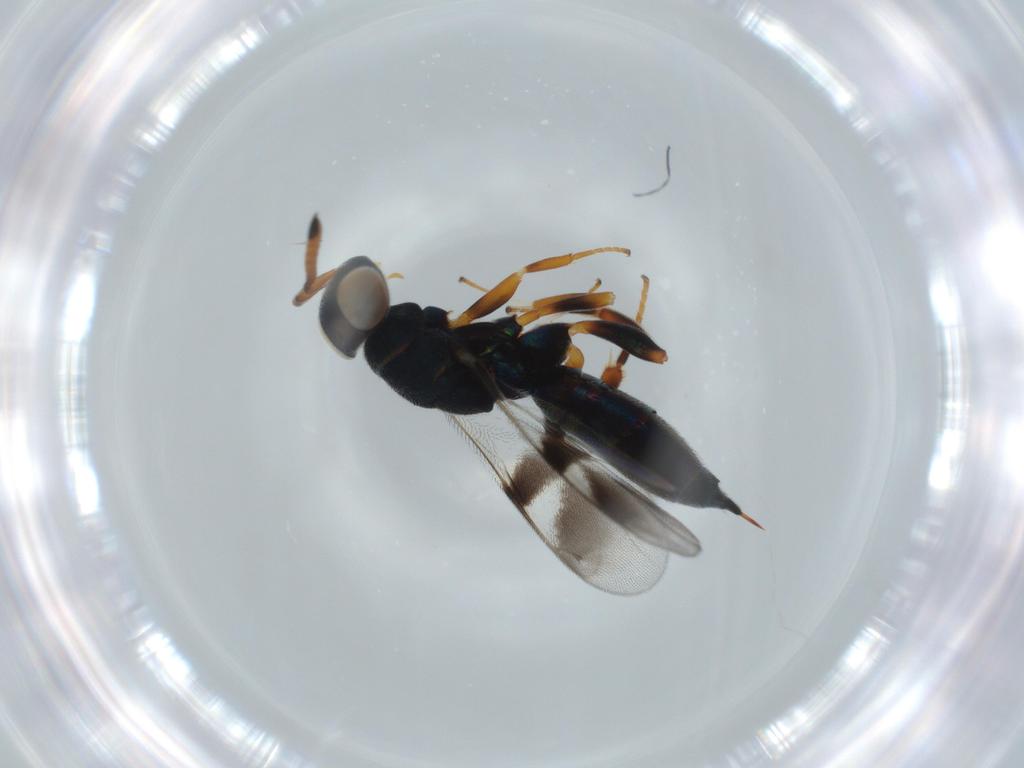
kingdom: Animalia
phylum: Arthropoda
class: Insecta
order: Hymenoptera
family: Cleonyminae
